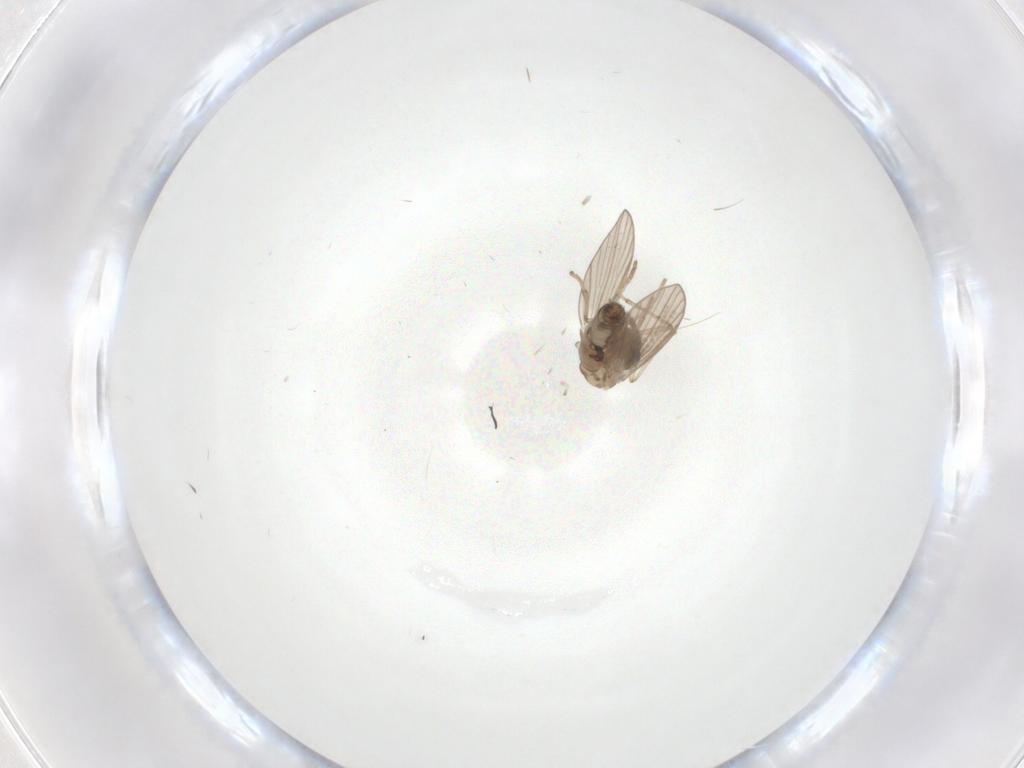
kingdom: Animalia
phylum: Arthropoda
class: Insecta
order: Diptera
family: Psychodidae
